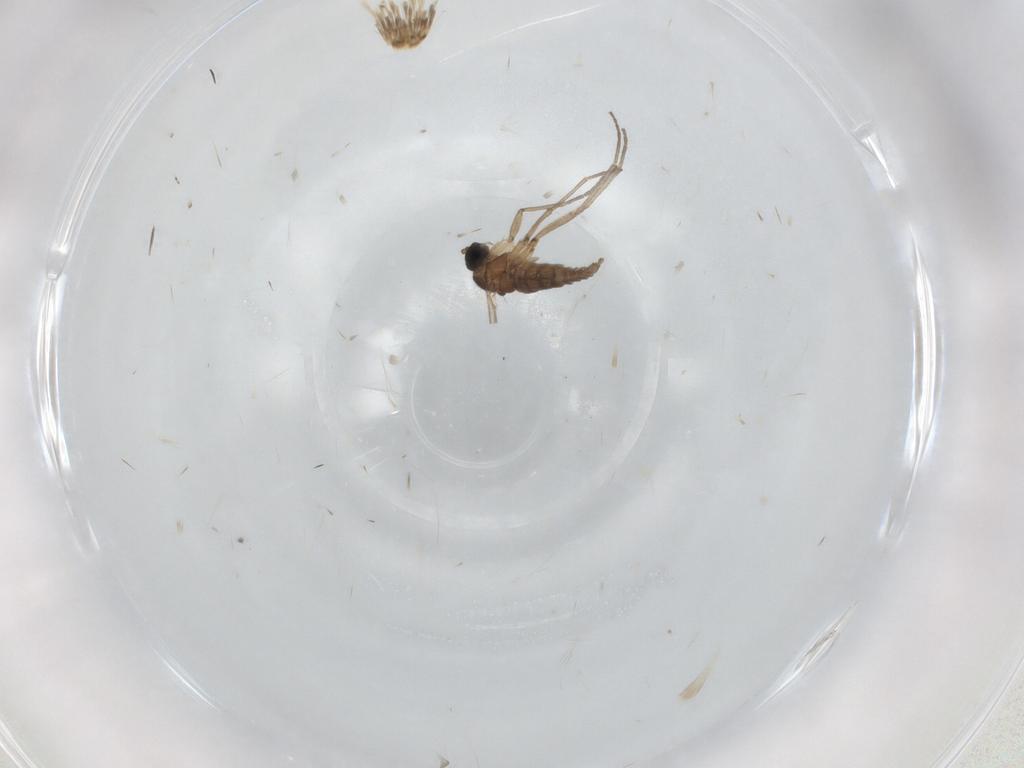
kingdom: Animalia
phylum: Arthropoda
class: Insecta
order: Diptera
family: Sciaridae
